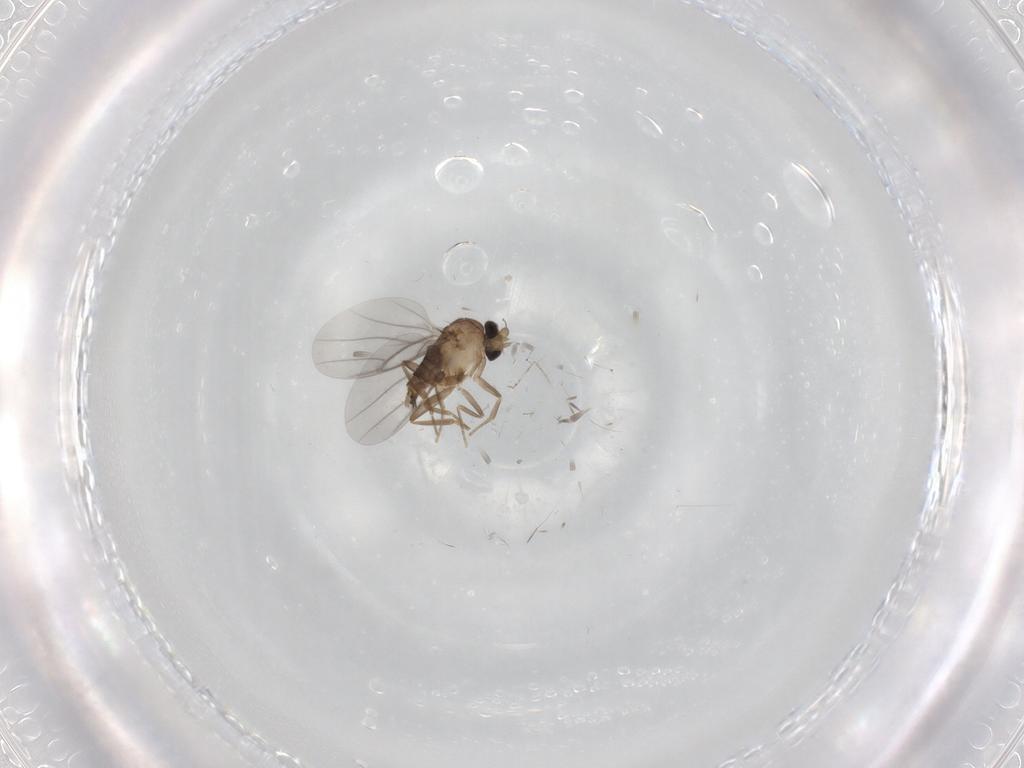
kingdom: Animalia
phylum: Arthropoda
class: Insecta
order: Diptera
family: Cecidomyiidae
